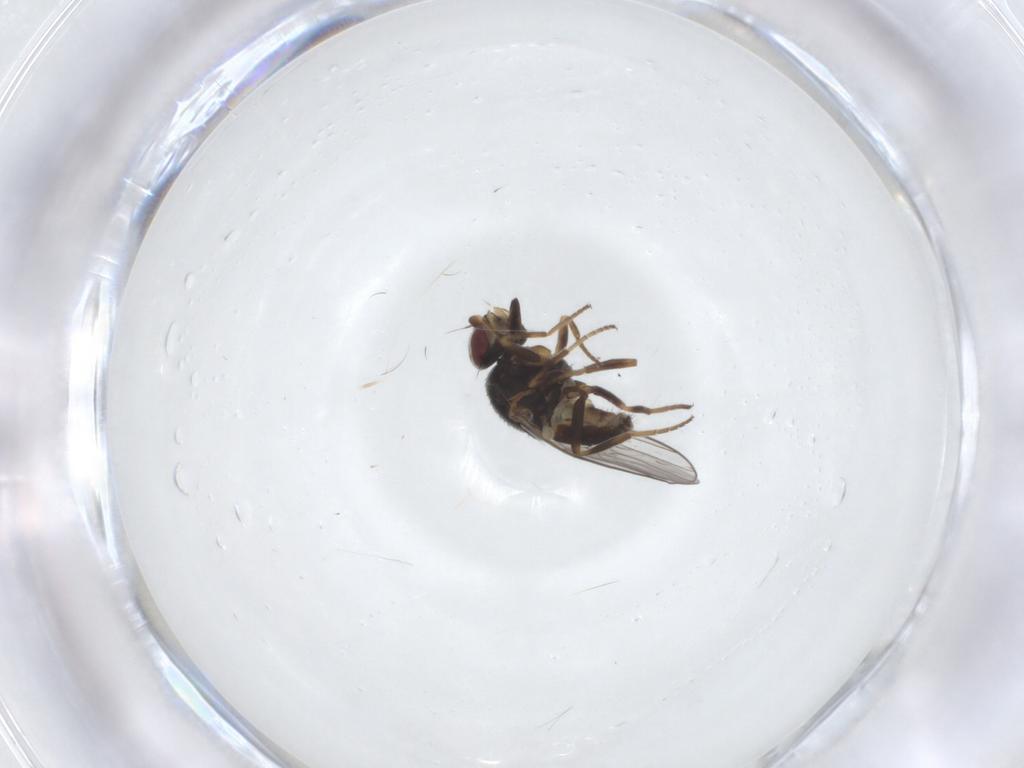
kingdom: Animalia
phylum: Arthropoda
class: Insecta
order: Diptera
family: Chloropidae
